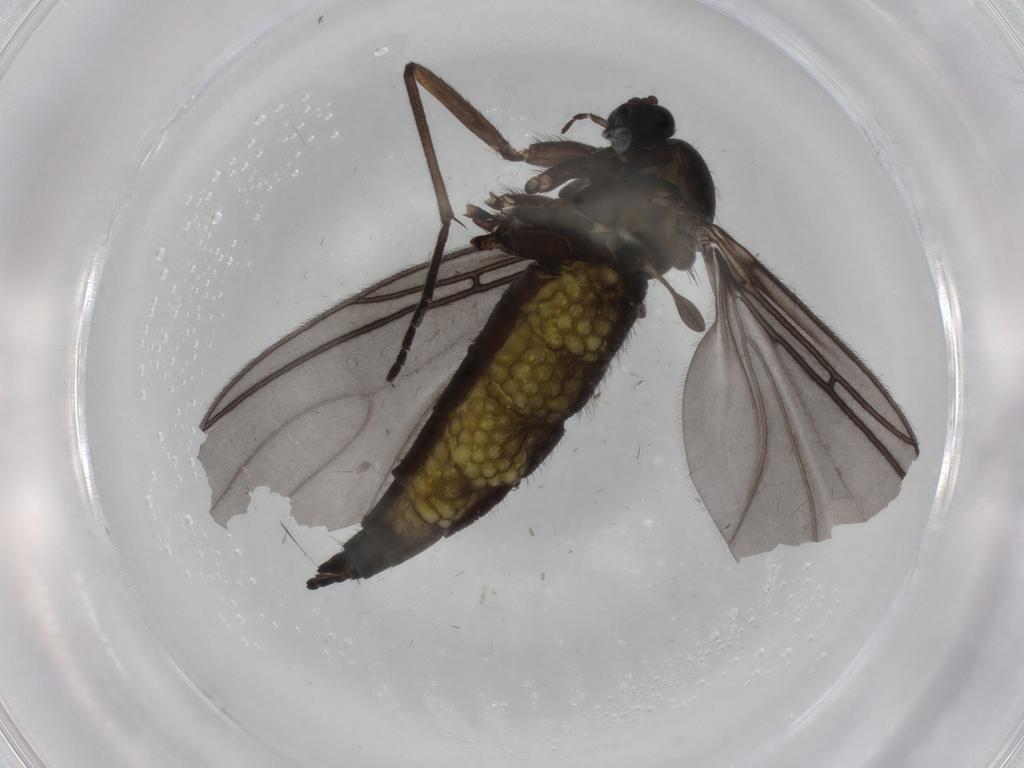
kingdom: Animalia
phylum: Arthropoda
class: Insecta
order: Diptera
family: Sciaridae
